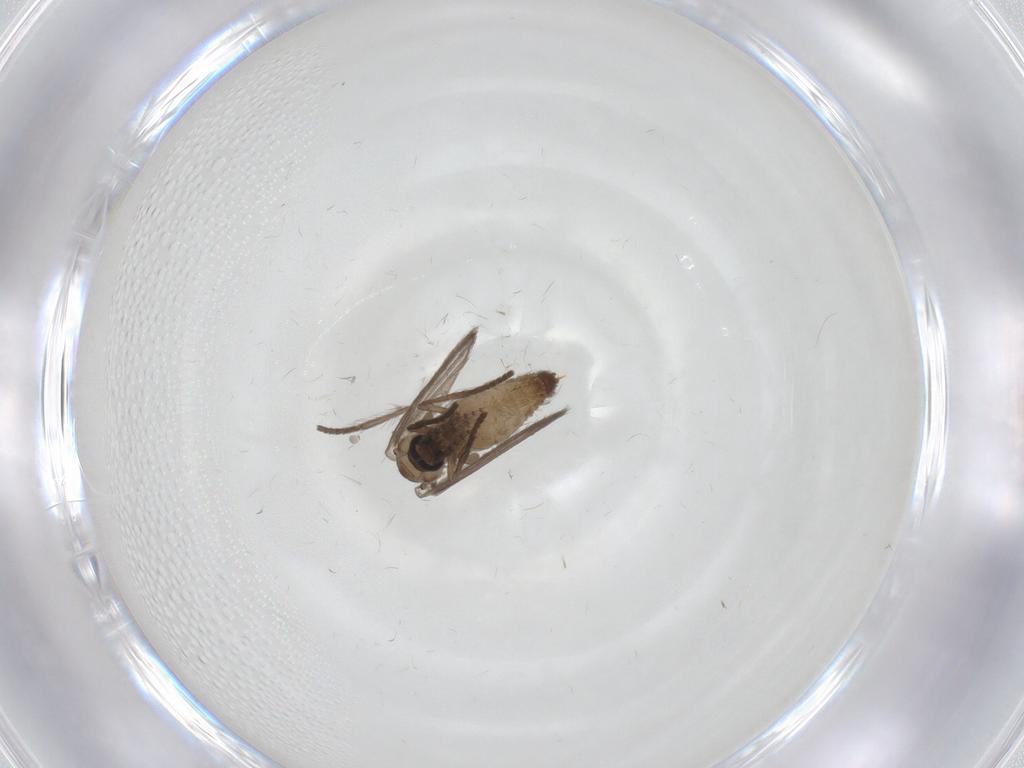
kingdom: Animalia
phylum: Arthropoda
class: Insecta
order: Diptera
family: Psychodidae
